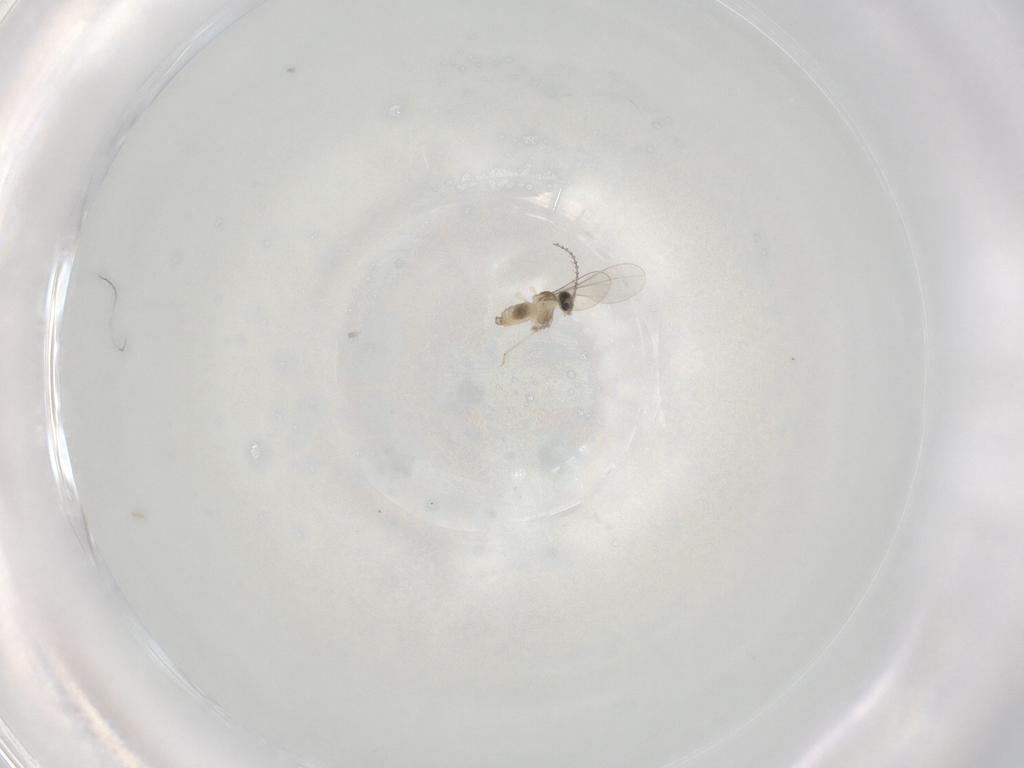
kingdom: Animalia
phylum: Arthropoda
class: Insecta
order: Diptera
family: Cecidomyiidae
